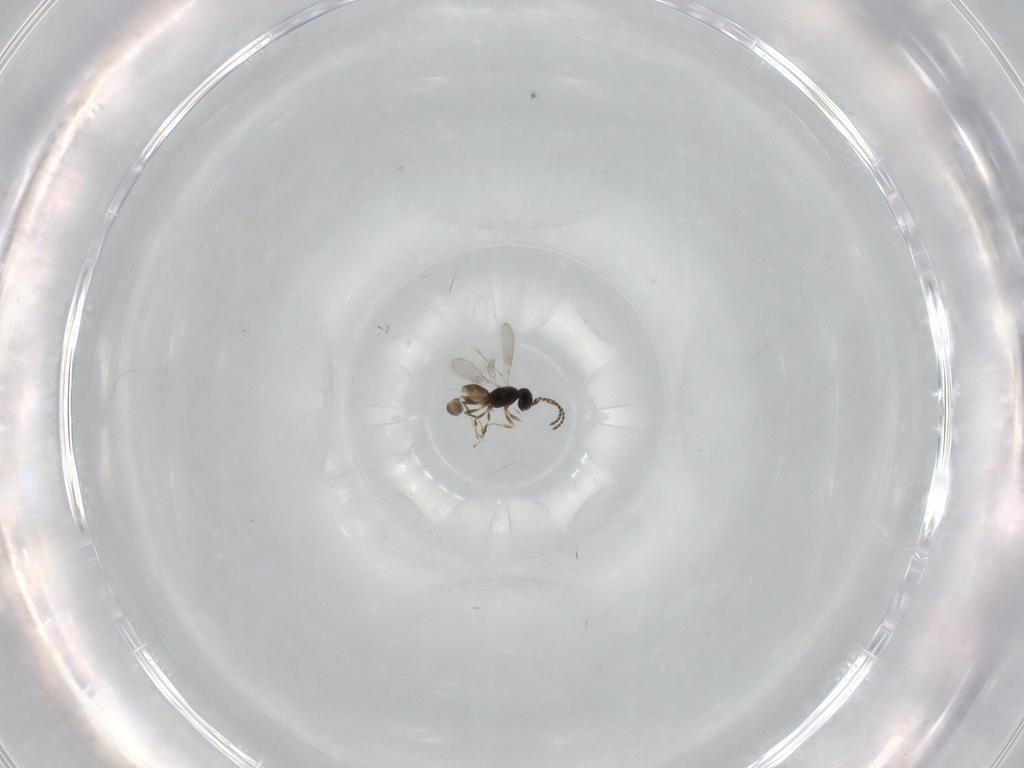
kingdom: Animalia
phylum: Arthropoda
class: Insecta
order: Hymenoptera
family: Scelionidae
